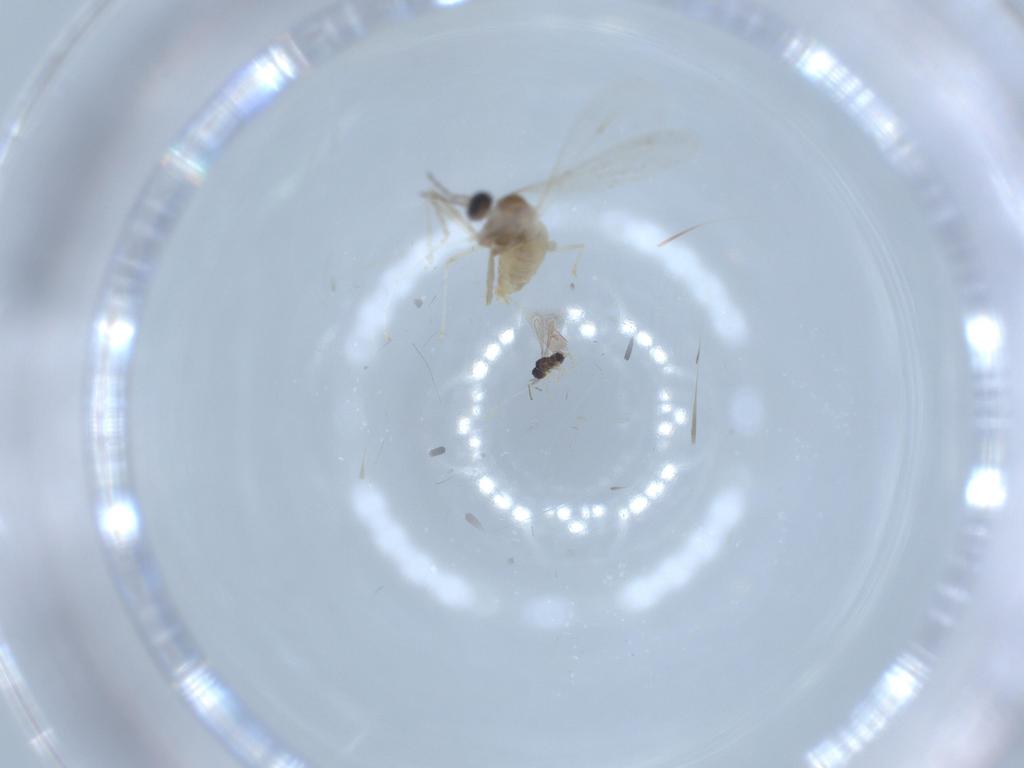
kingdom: Animalia
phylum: Arthropoda
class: Insecta
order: Diptera
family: Cecidomyiidae
